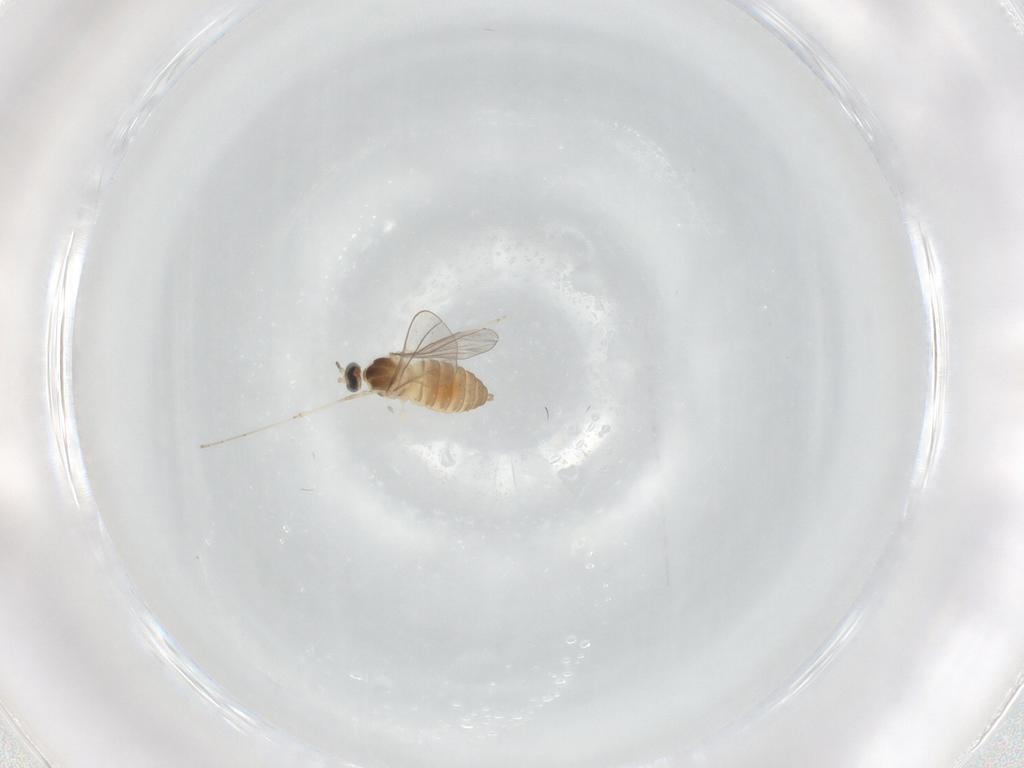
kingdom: Animalia
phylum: Arthropoda
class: Insecta
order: Diptera
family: Cecidomyiidae
